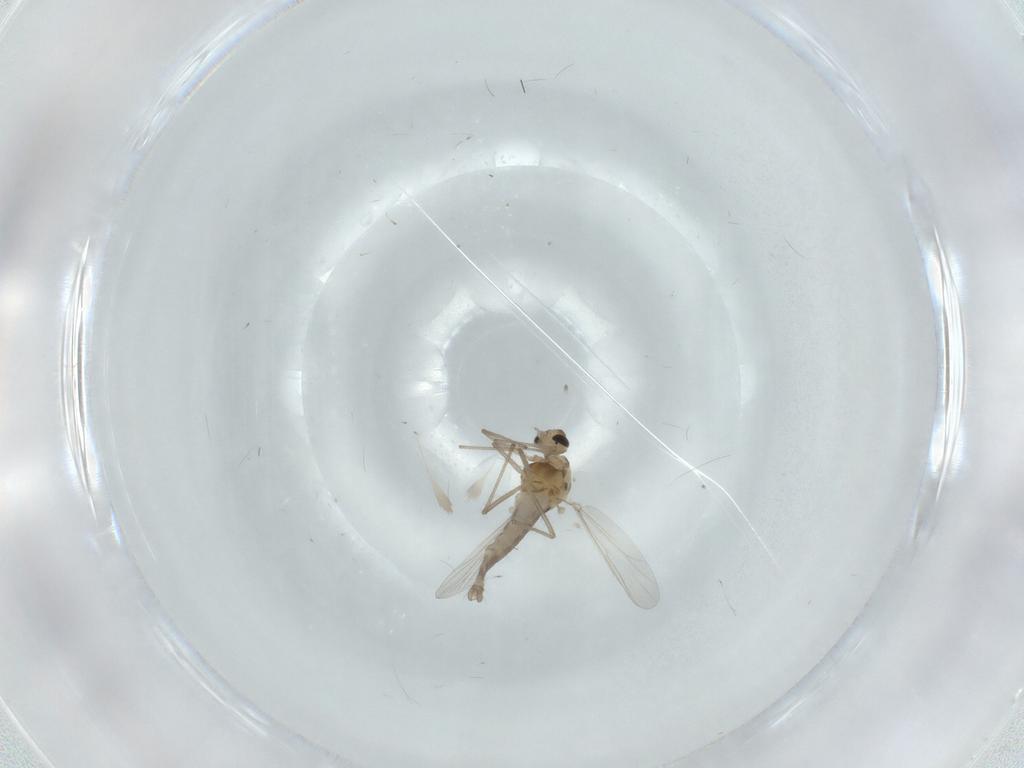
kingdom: Animalia
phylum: Arthropoda
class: Insecta
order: Diptera
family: Chironomidae
